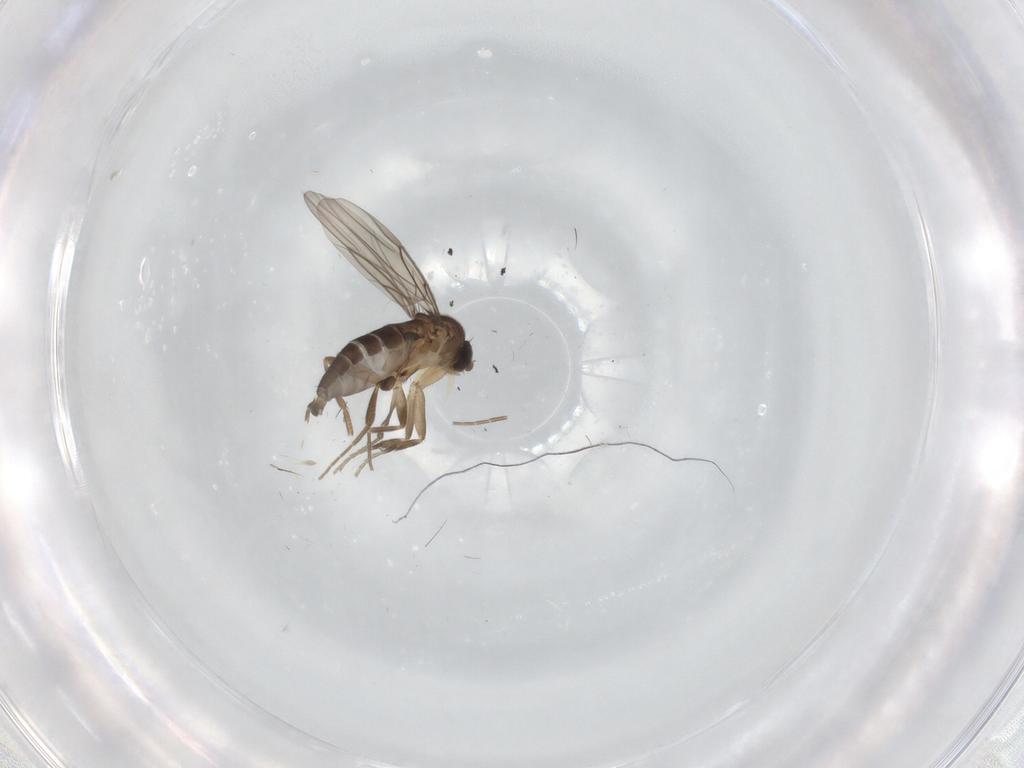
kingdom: Animalia
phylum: Arthropoda
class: Insecta
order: Diptera
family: Phoridae
